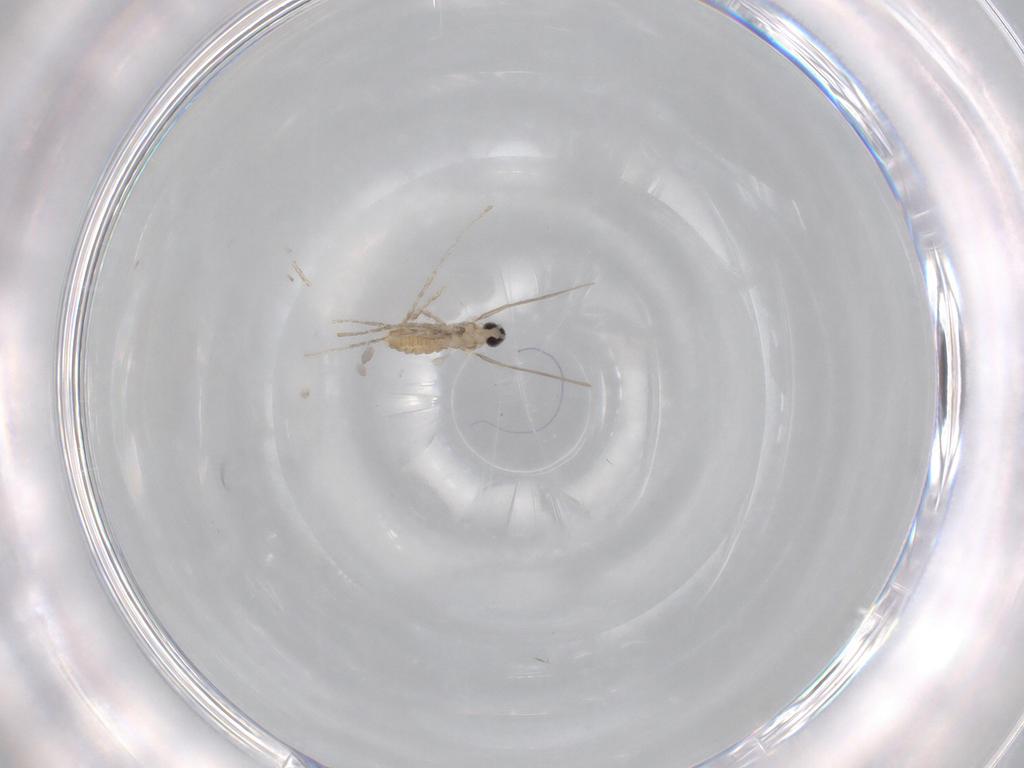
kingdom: Animalia
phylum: Arthropoda
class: Insecta
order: Diptera
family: Cecidomyiidae
